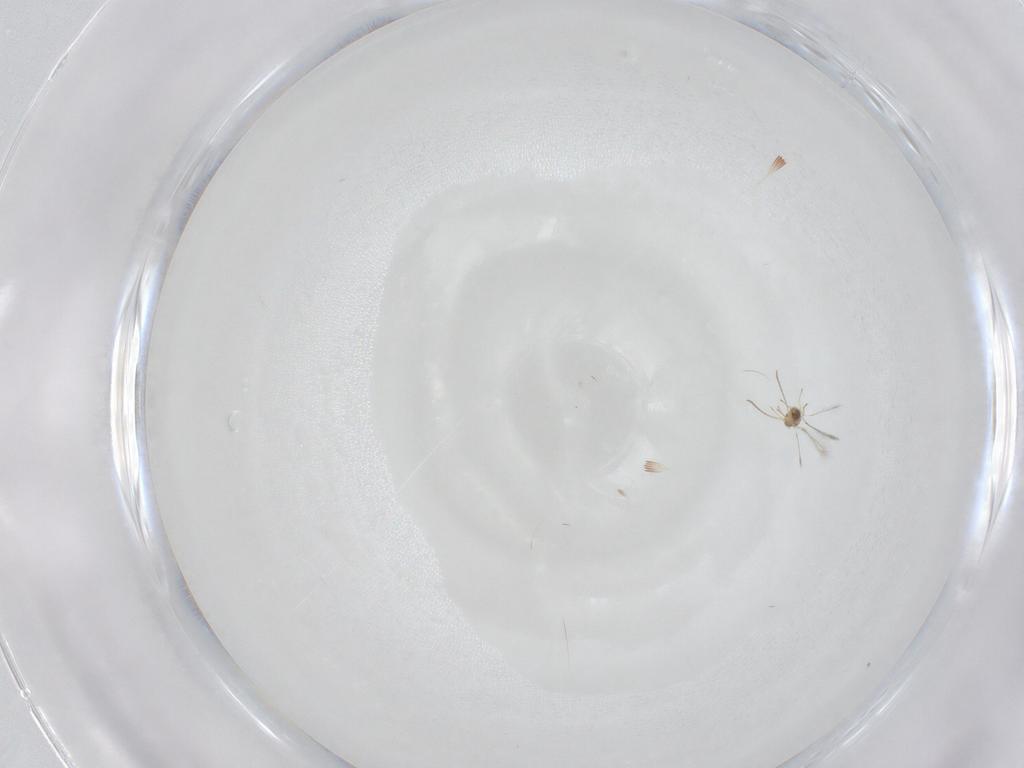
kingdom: Animalia
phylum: Arthropoda
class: Insecta
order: Hymenoptera
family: Mymaridae
